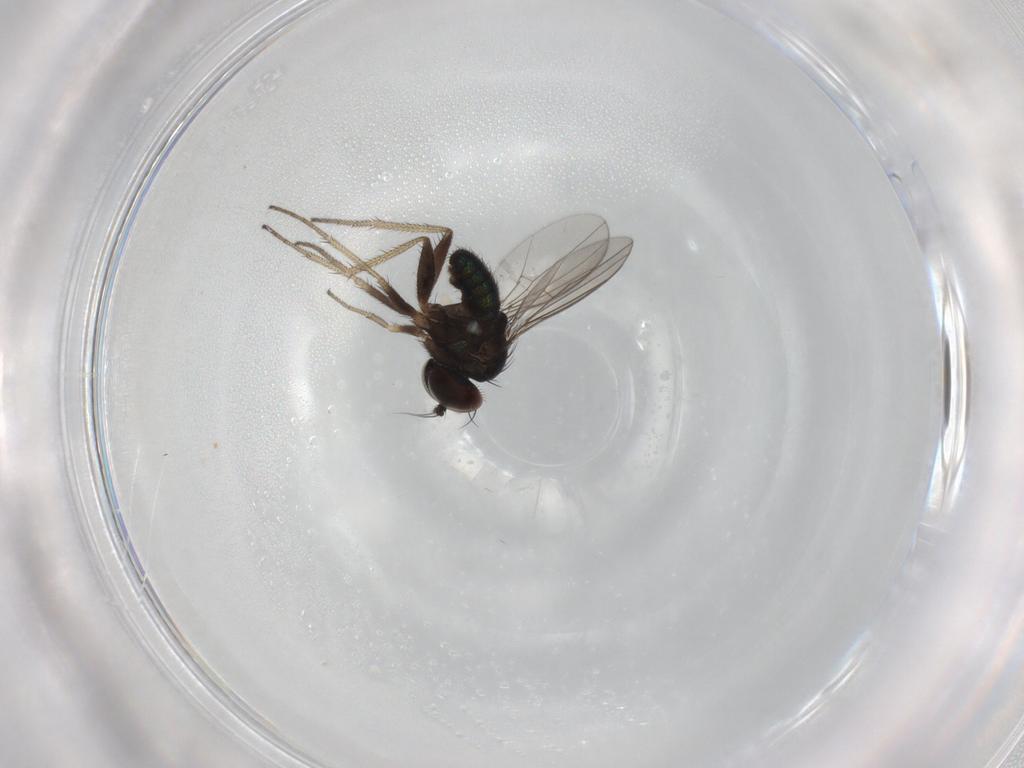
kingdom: Animalia
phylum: Arthropoda
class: Insecta
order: Diptera
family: Dolichopodidae
